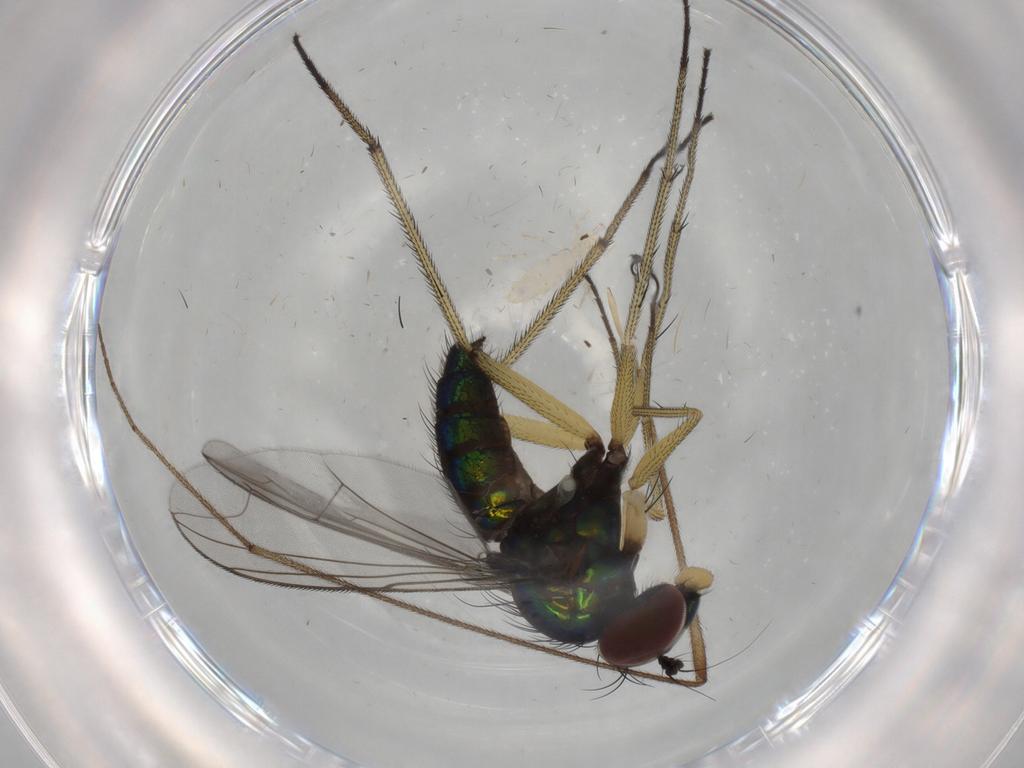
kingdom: Animalia
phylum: Arthropoda
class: Insecta
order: Diptera
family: Dolichopodidae
